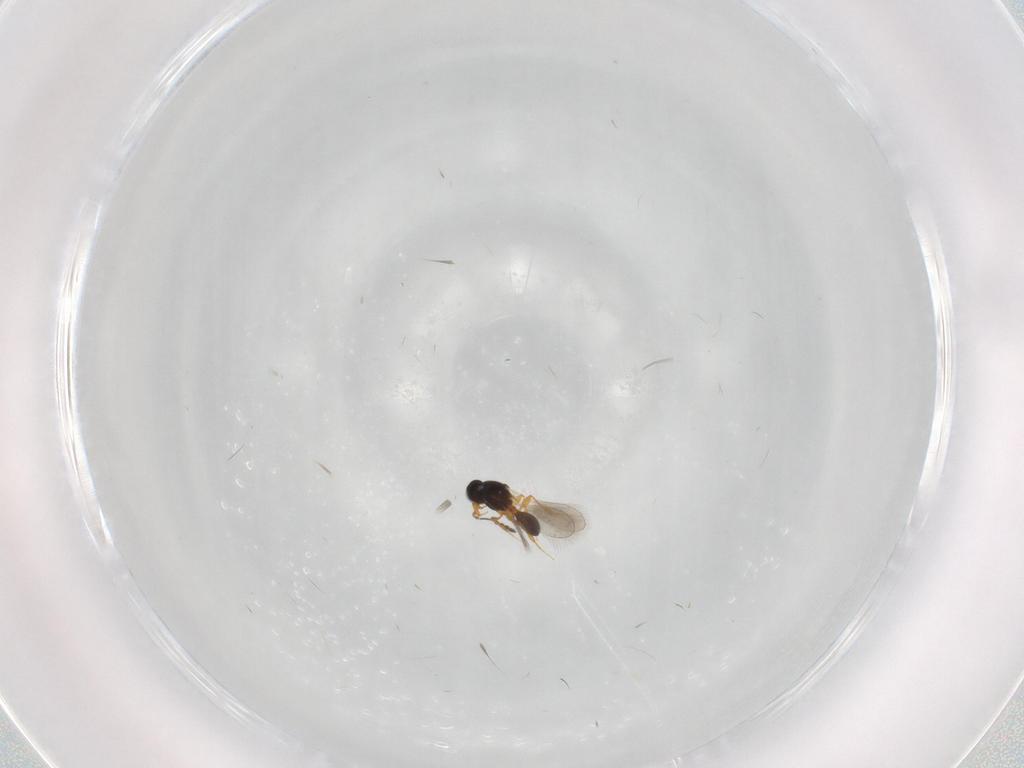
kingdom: Animalia
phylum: Arthropoda
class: Insecta
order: Hymenoptera
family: Platygastridae
